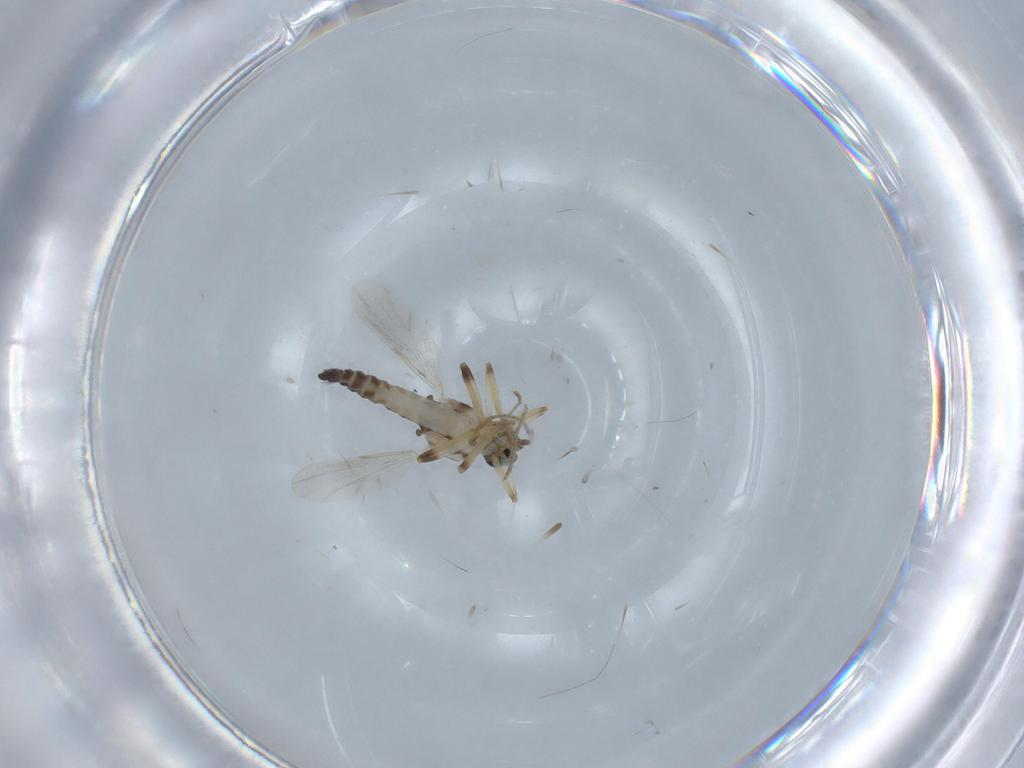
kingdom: Animalia
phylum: Arthropoda
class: Insecta
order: Diptera
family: Ceratopogonidae
